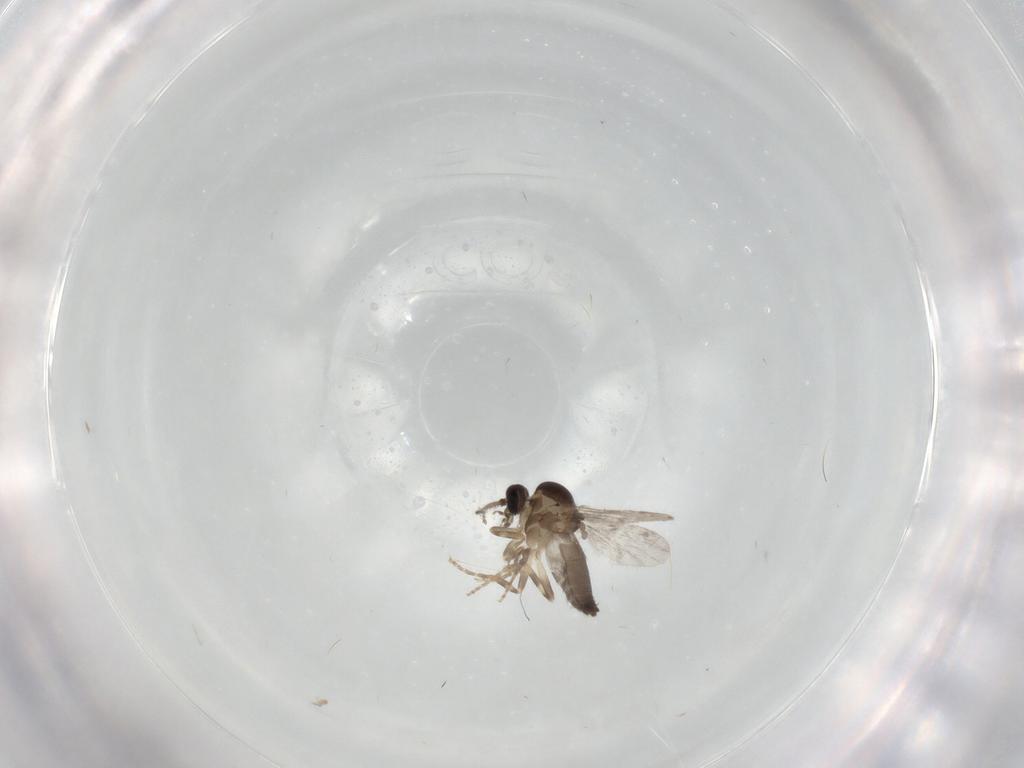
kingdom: Animalia
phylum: Arthropoda
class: Insecta
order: Diptera
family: Ceratopogonidae
